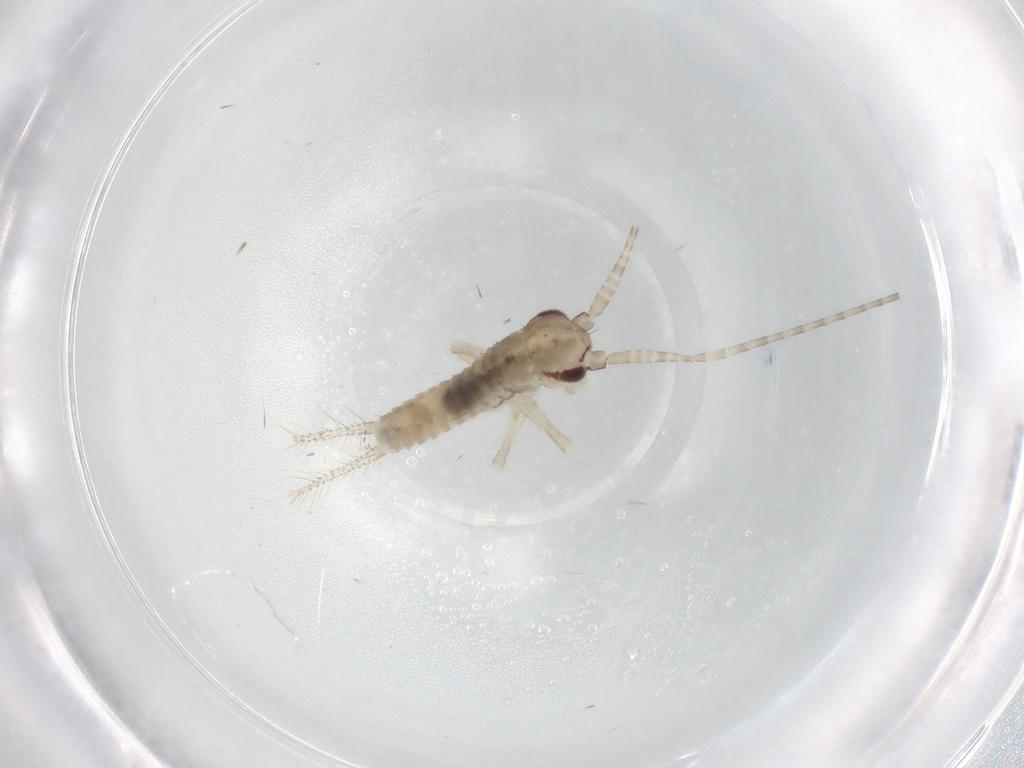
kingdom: Animalia
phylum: Arthropoda
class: Insecta
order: Orthoptera
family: Gryllidae
